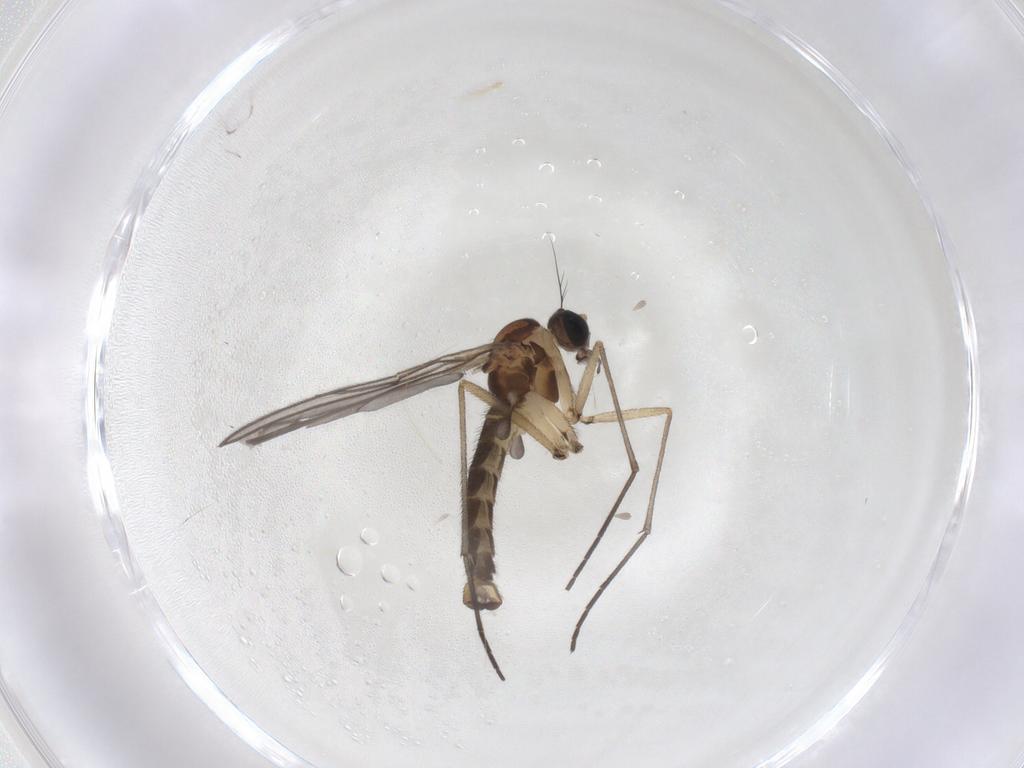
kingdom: Animalia
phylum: Arthropoda
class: Insecta
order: Diptera
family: Sciaridae
